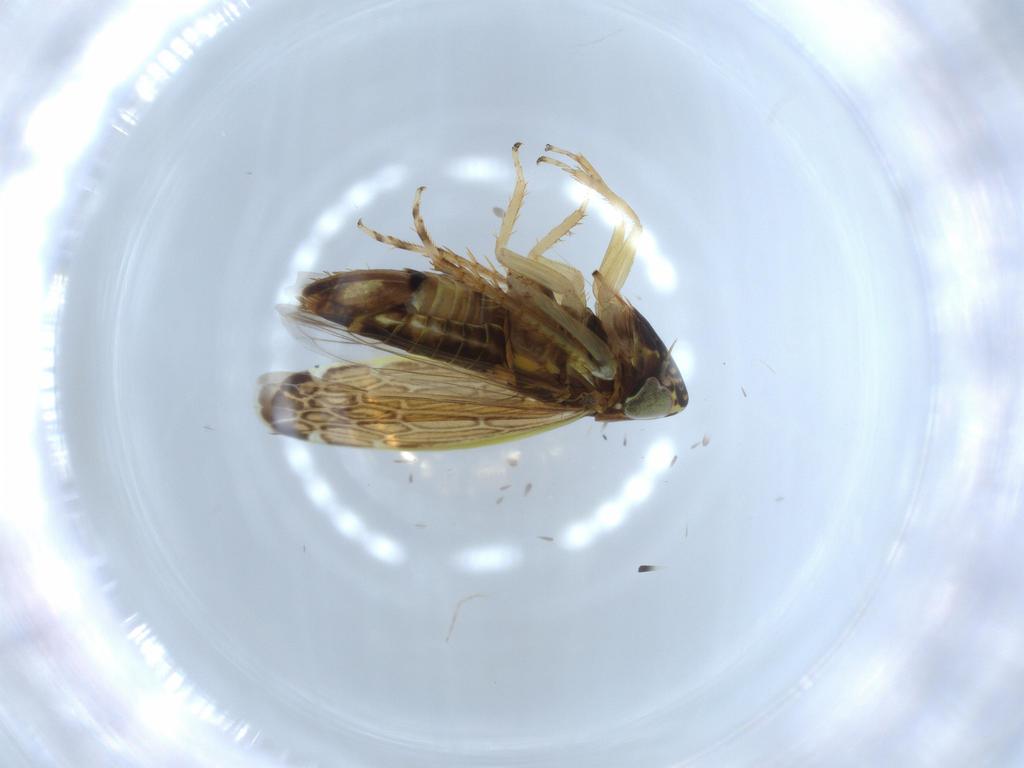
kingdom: Animalia
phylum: Arthropoda
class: Insecta
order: Hemiptera
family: Cicadellidae
